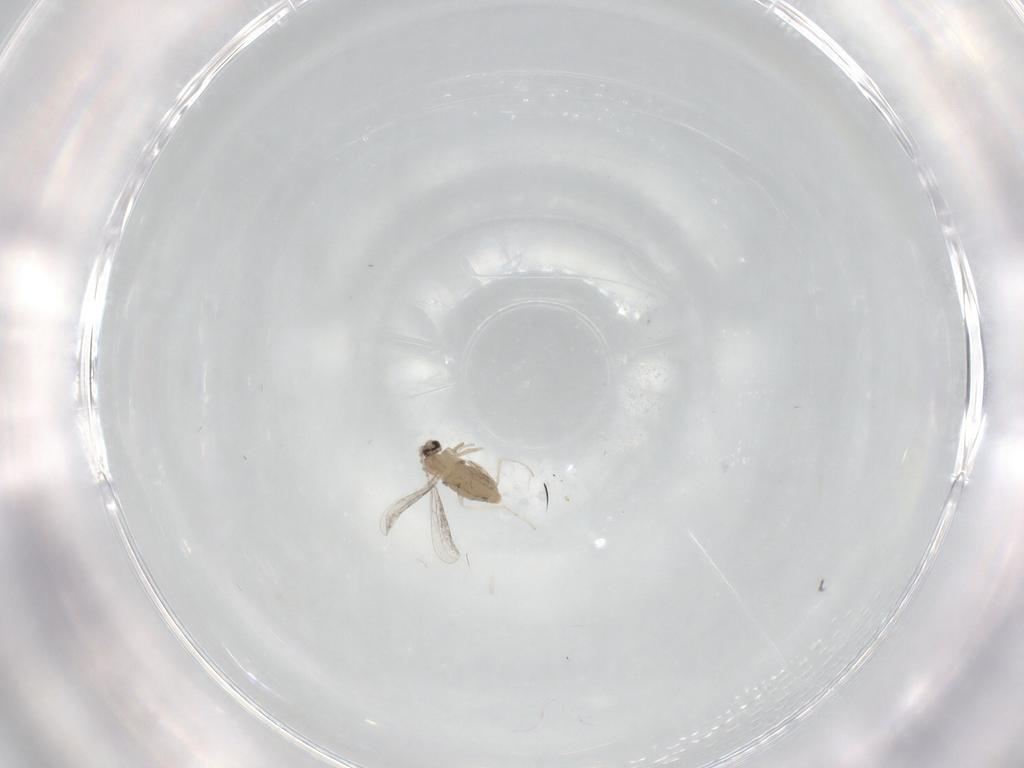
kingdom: Animalia
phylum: Arthropoda
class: Insecta
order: Diptera
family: Cecidomyiidae
